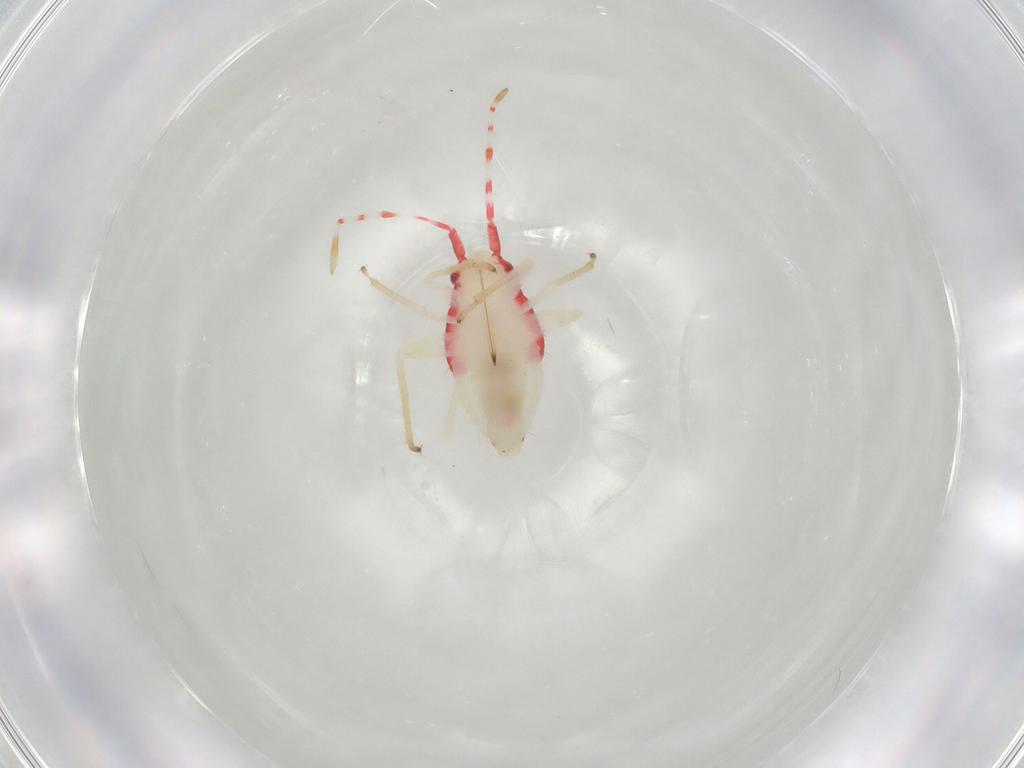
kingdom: Animalia
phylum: Arthropoda
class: Insecta
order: Hemiptera
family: Miridae
